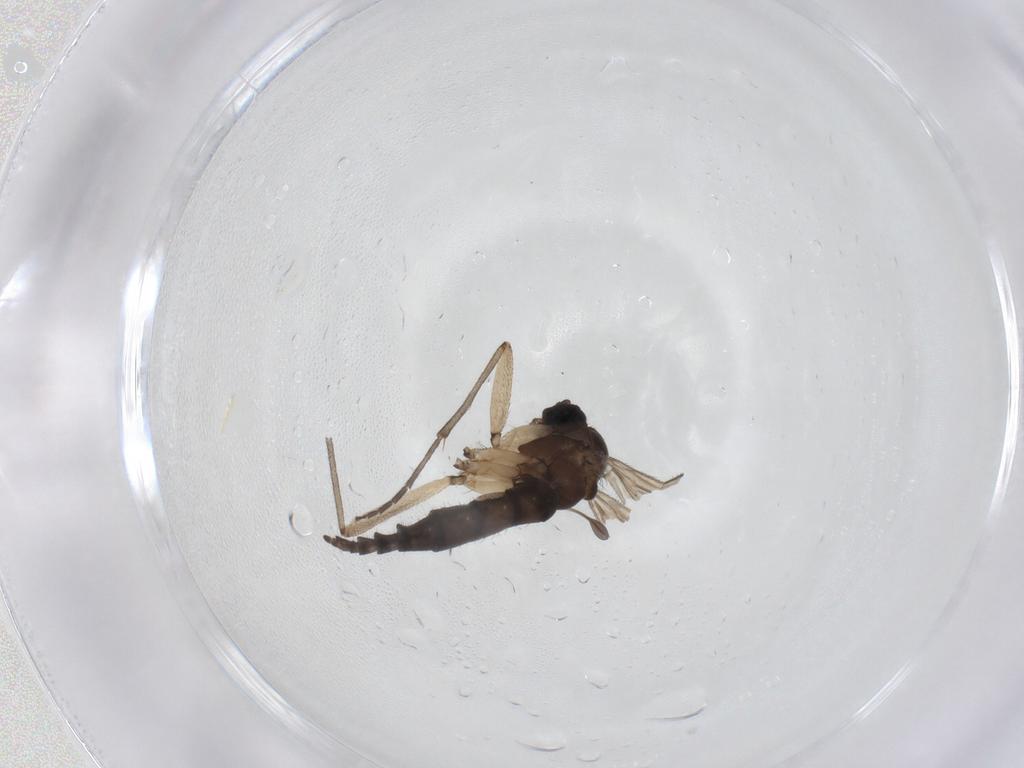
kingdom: Animalia
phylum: Arthropoda
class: Insecta
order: Diptera
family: Sciaridae
